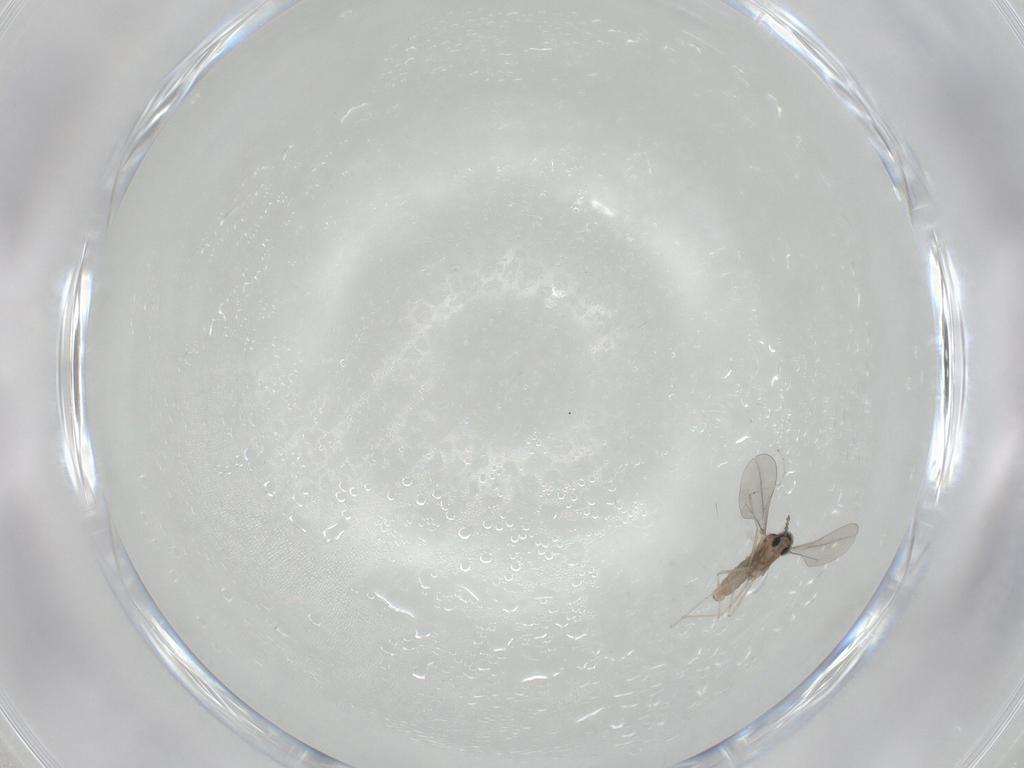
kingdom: Animalia
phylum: Arthropoda
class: Insecta
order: Diptera
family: Cecidomyiidae
